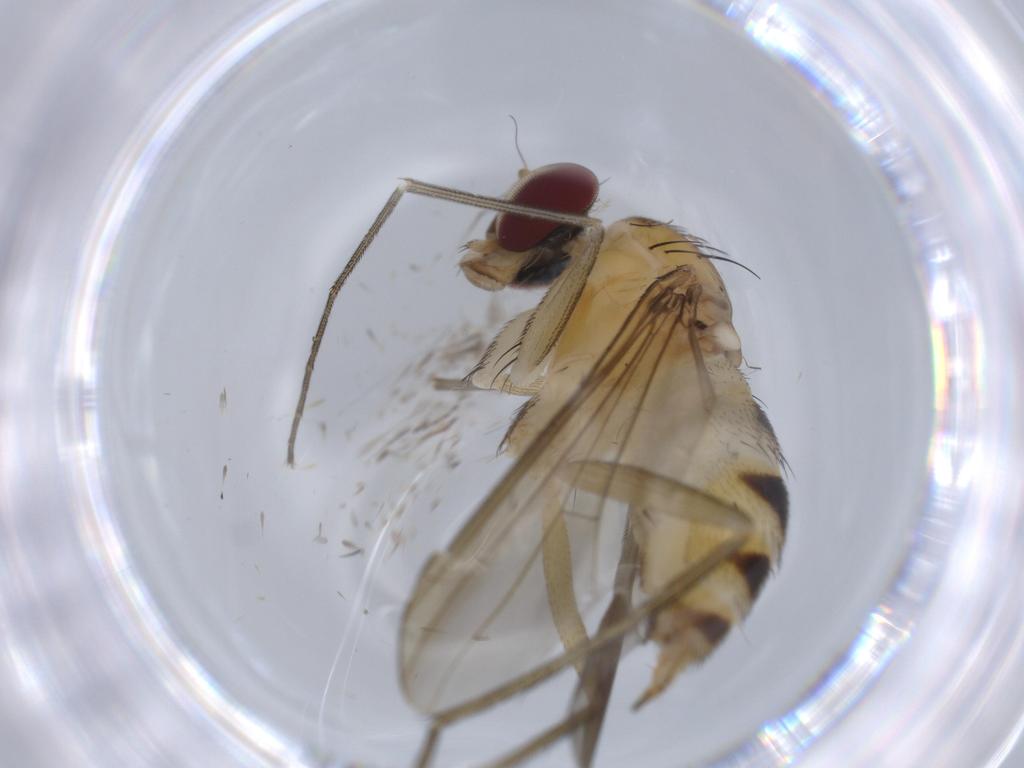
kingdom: Animalia
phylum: Arthropoda
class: Insecta
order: Diptera
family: Dolichopodidae
